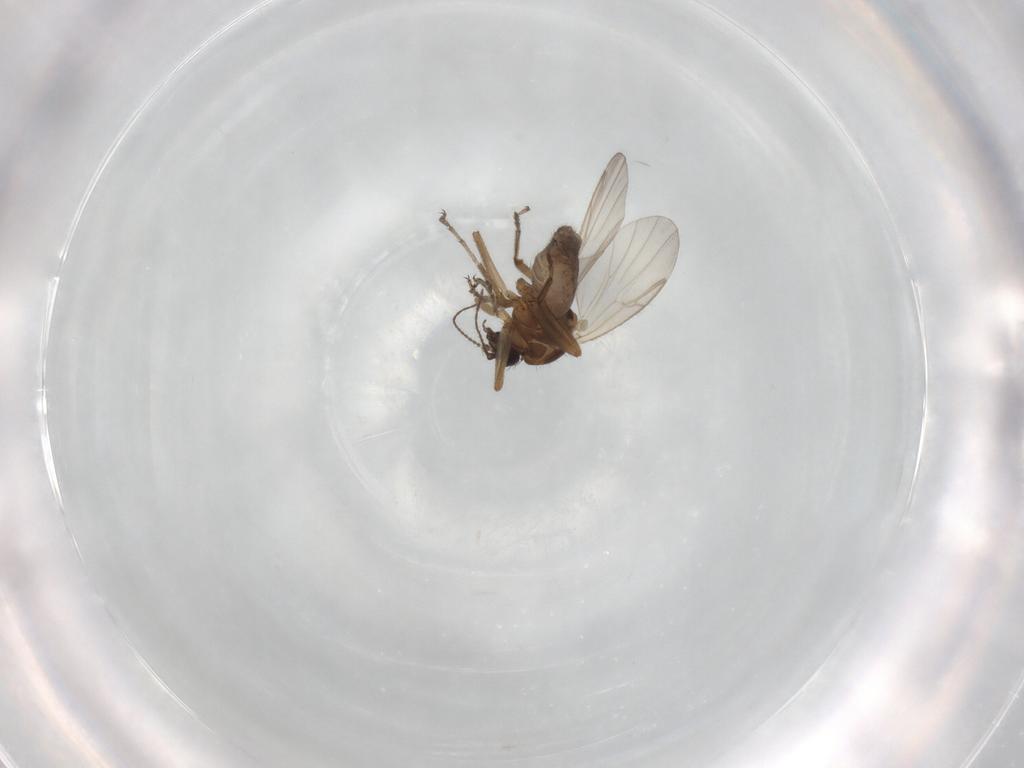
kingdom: Animalia
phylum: Arthropoda
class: Insecta
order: Diptera
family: Ceratopogonidae
